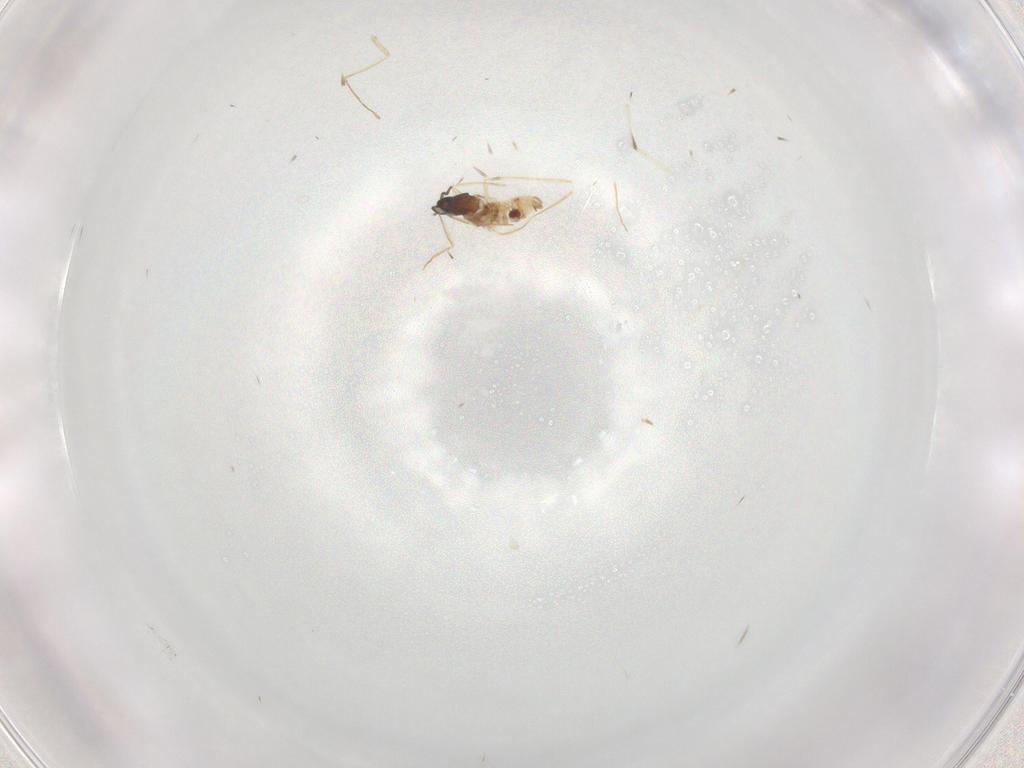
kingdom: Animalia
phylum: Arthropoda
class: Insecta
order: Diptera
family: Cecidomyiidae
